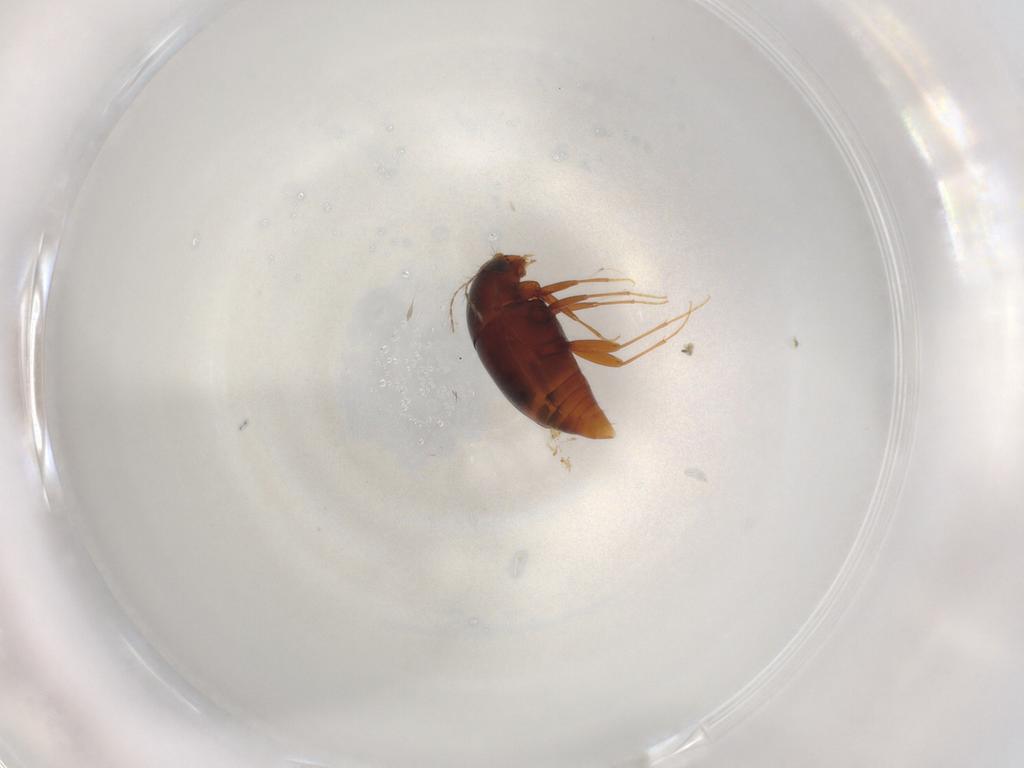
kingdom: Animalia
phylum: Arthropoda
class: Insecta
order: Coleoptera
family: Staphylinidae
